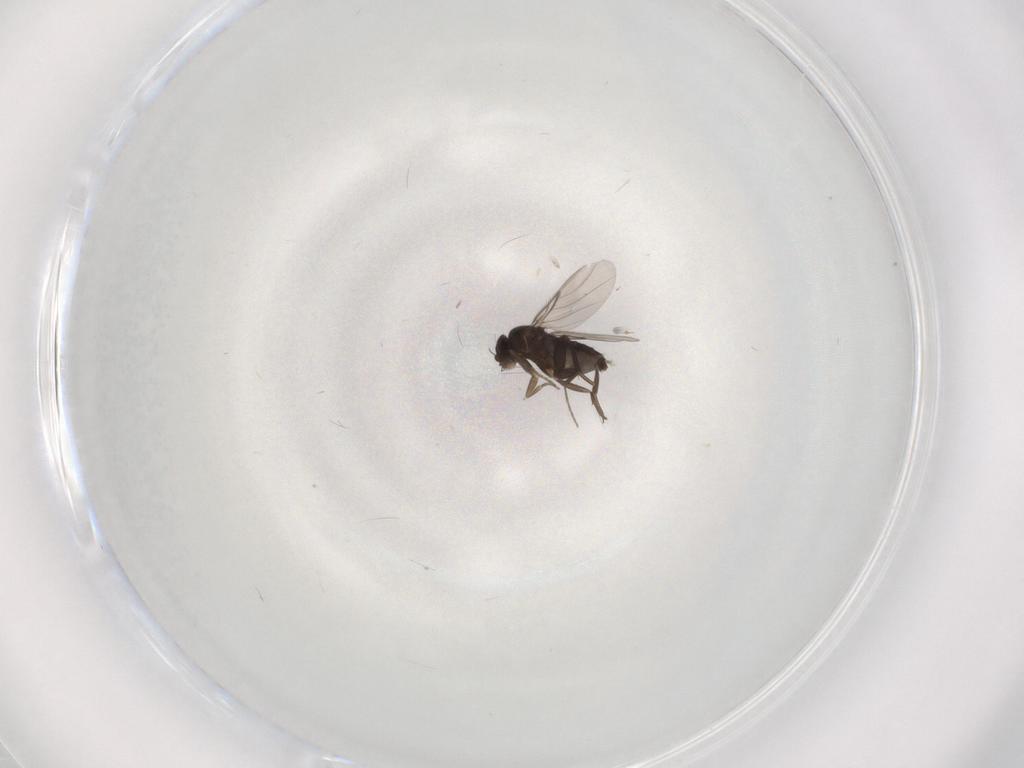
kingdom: Animalia
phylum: Arthropoda
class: Insecta
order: Diptera
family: Phoridae
